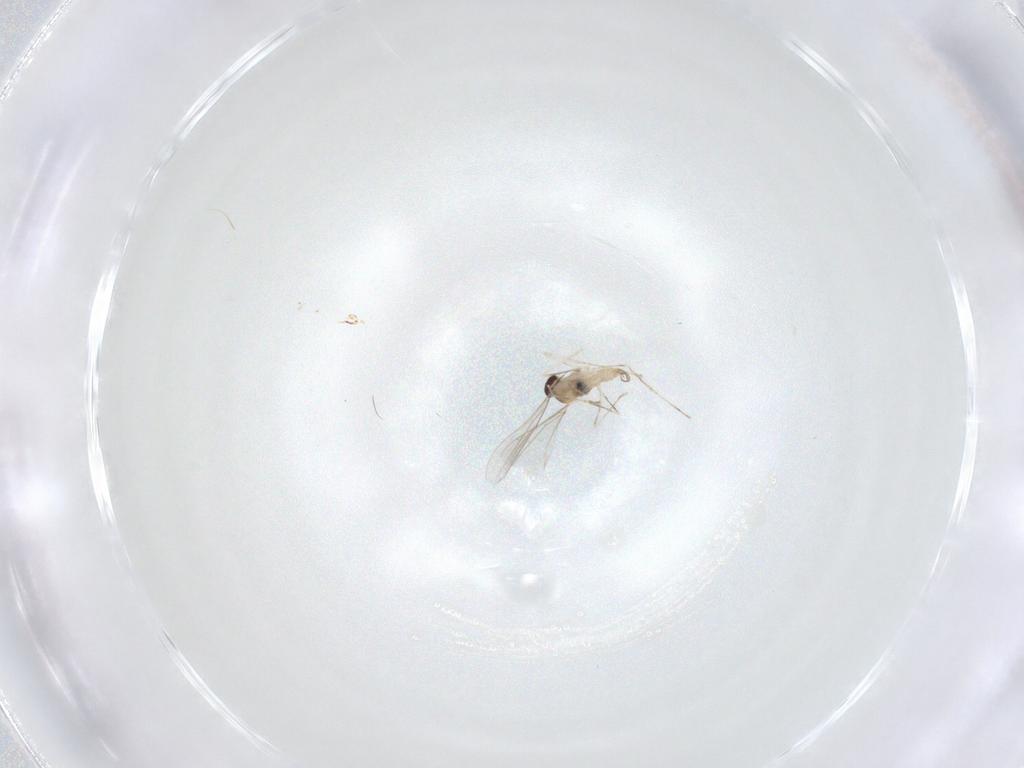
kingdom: Animalia
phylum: Arthropoda
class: Insecta
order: Diptera
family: Cecidomyiidae
